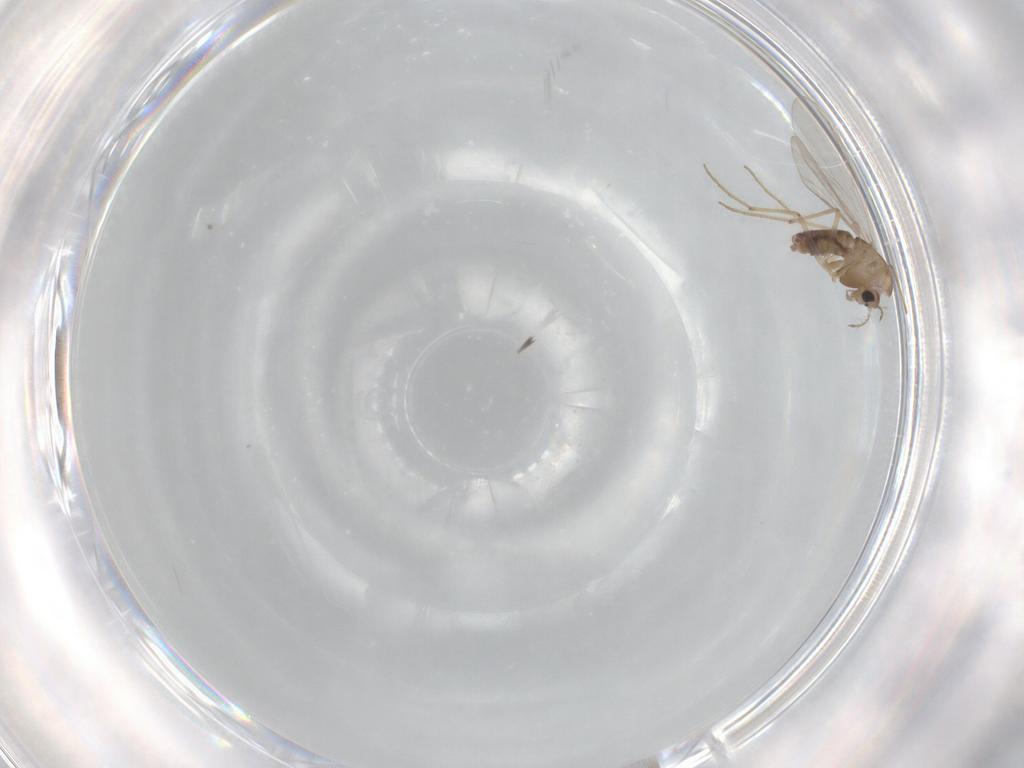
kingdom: Animalia
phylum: Arthropoda
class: Insecta
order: Diptera
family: Chironomidae
